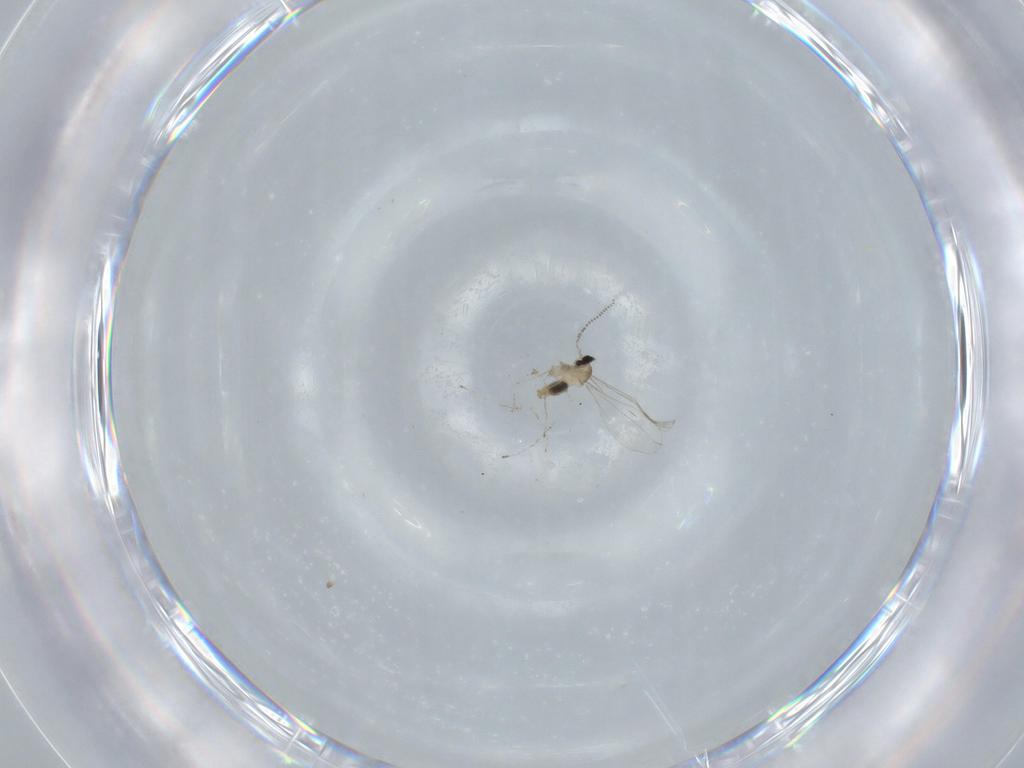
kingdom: Animalia
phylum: Arthropoda
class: Insecta
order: Diptera
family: Cecidomyiidae
